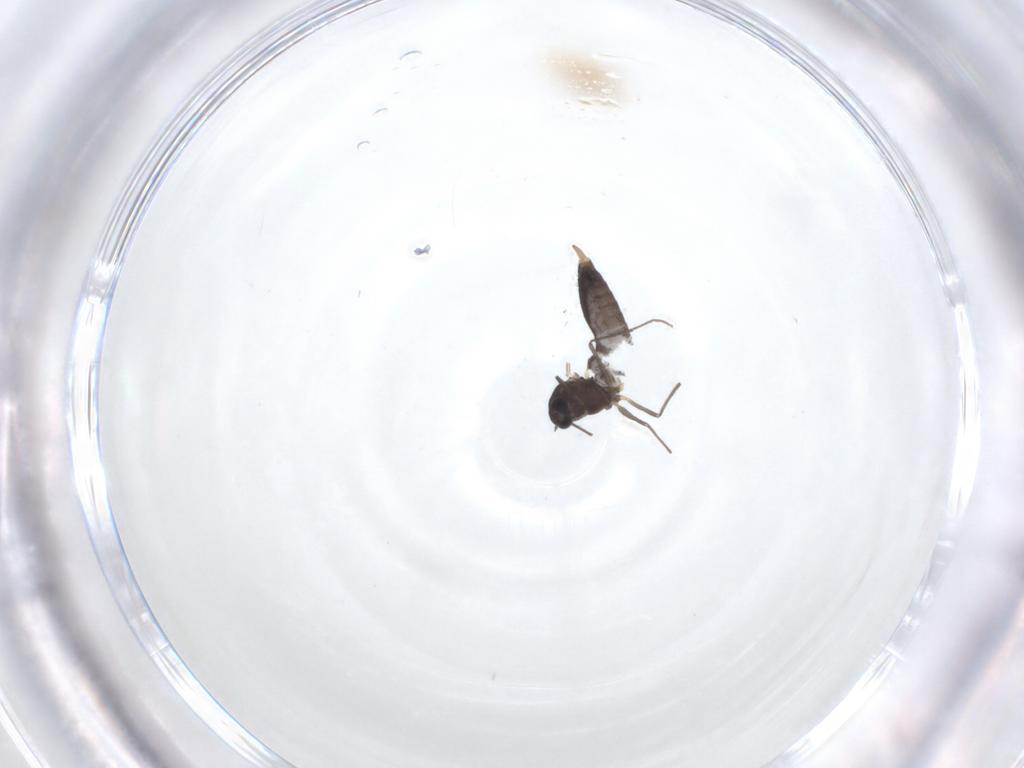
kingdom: Animalia
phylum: Arthropoda
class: Insecta
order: Diptera
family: Chironomidae
